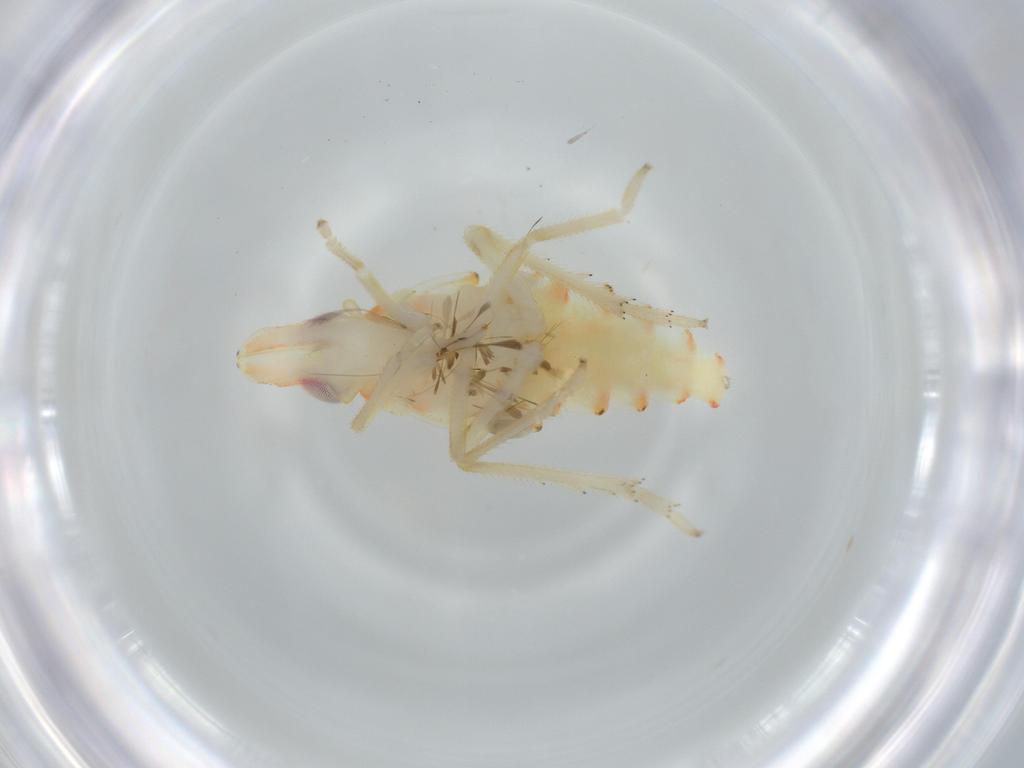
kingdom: Animalia
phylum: Arthropoda
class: Insecta
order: Hemiptera
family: Tropiduchidae
